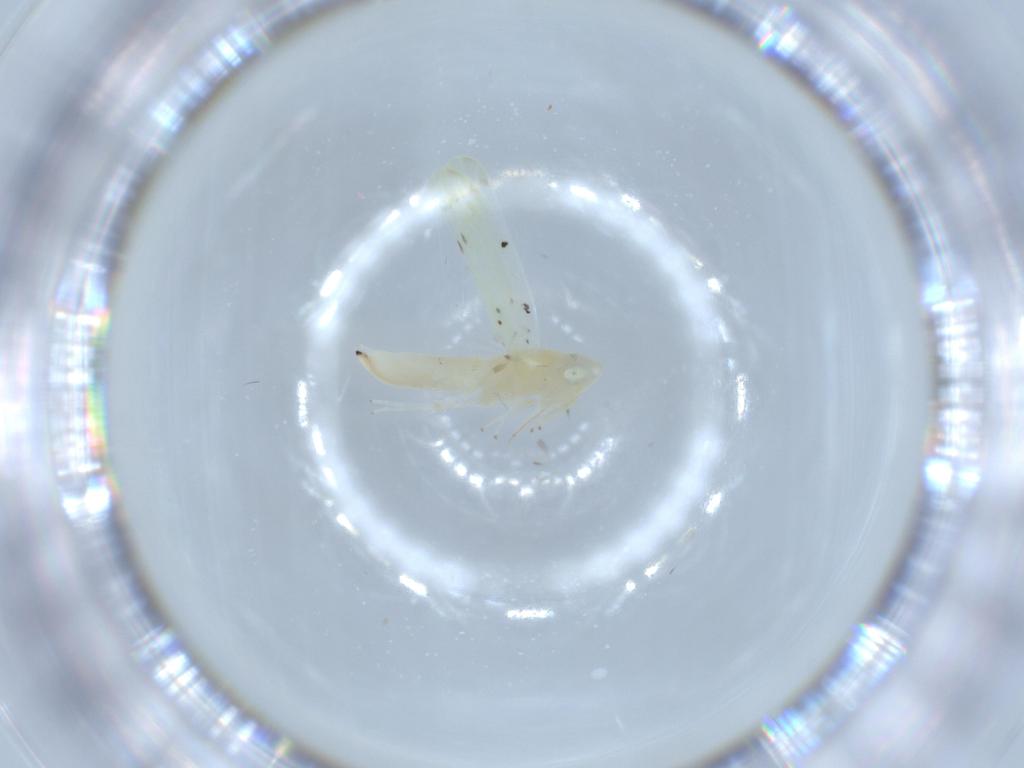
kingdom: Animalia
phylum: Arthropoda
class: Insecta
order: Hemiptera
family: Cicadellidae
